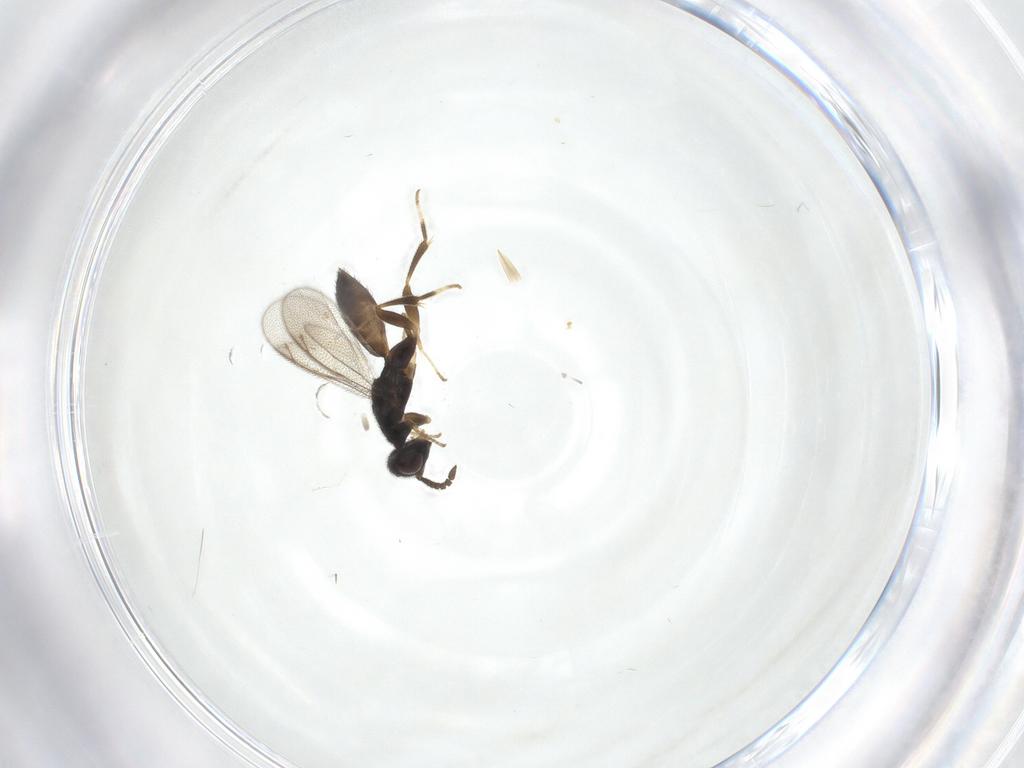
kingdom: Animalia
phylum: Arthropoda
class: Insecta
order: Hymenoptera
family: Cleonyminae
